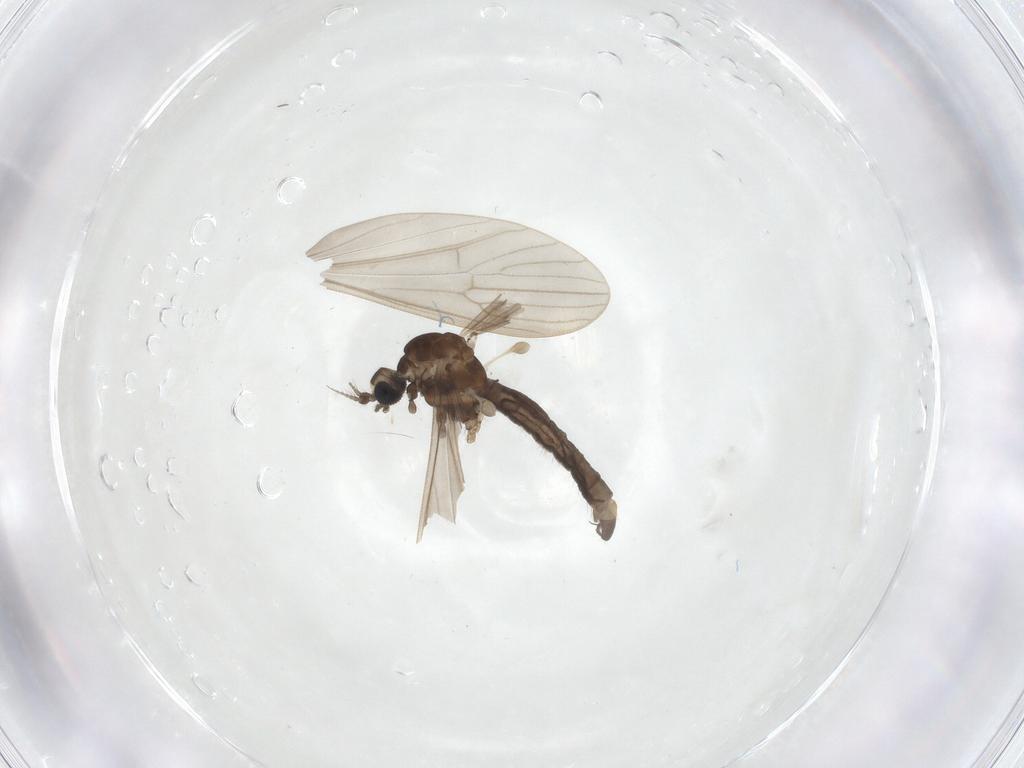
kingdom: Animalia
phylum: Arthropoda
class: Insecta
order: Diptera
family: Limoniidae
